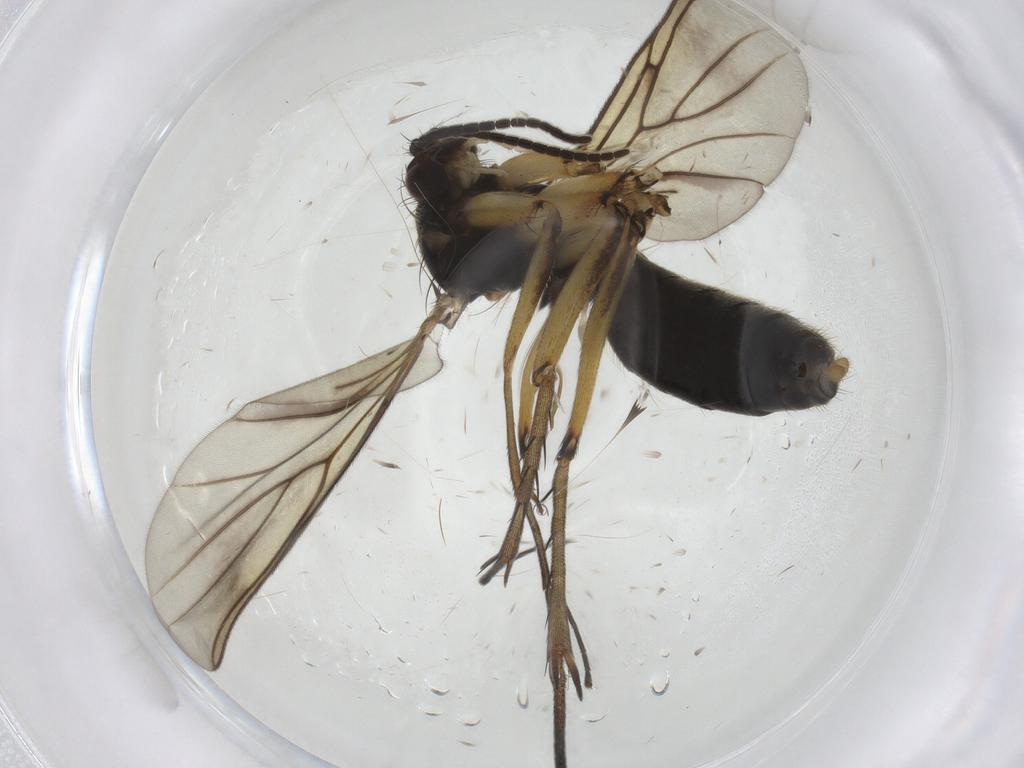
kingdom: Animalia
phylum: Arthropoda
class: Insecta
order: Diptera
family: Mycetophilidae
